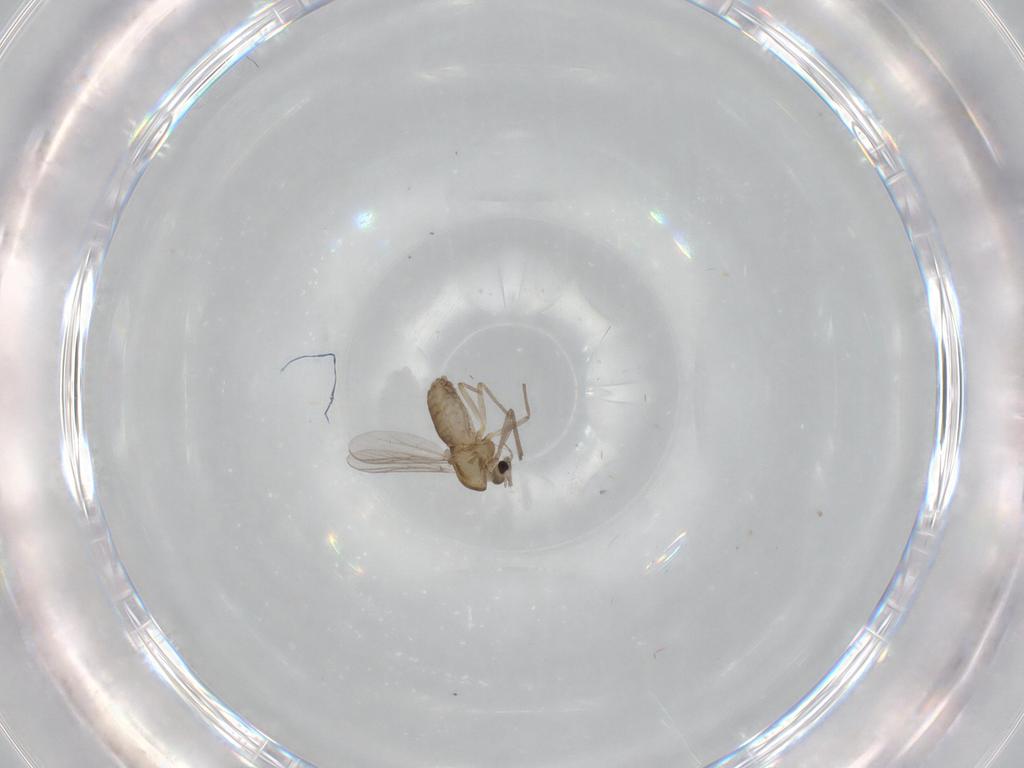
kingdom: Animalia
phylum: Arthropoda
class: Insecta
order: Diptera
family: Chironomidae
